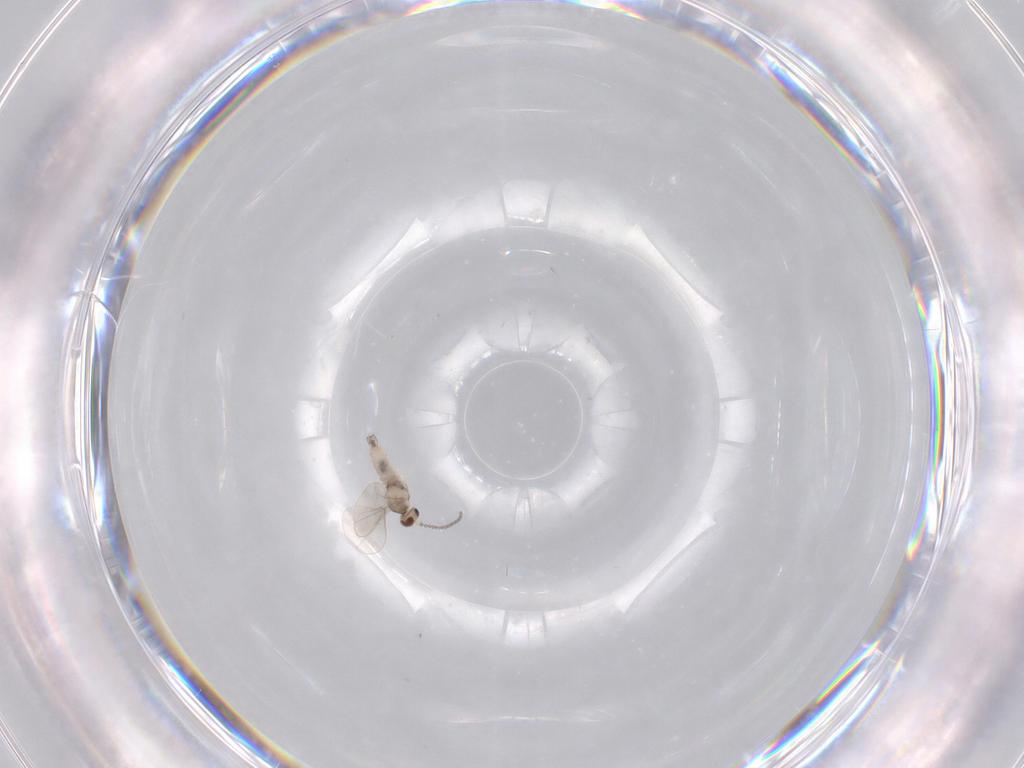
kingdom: Animalia
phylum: Arthropoda
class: Insecta
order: Diptera
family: Cecidomyiidae
